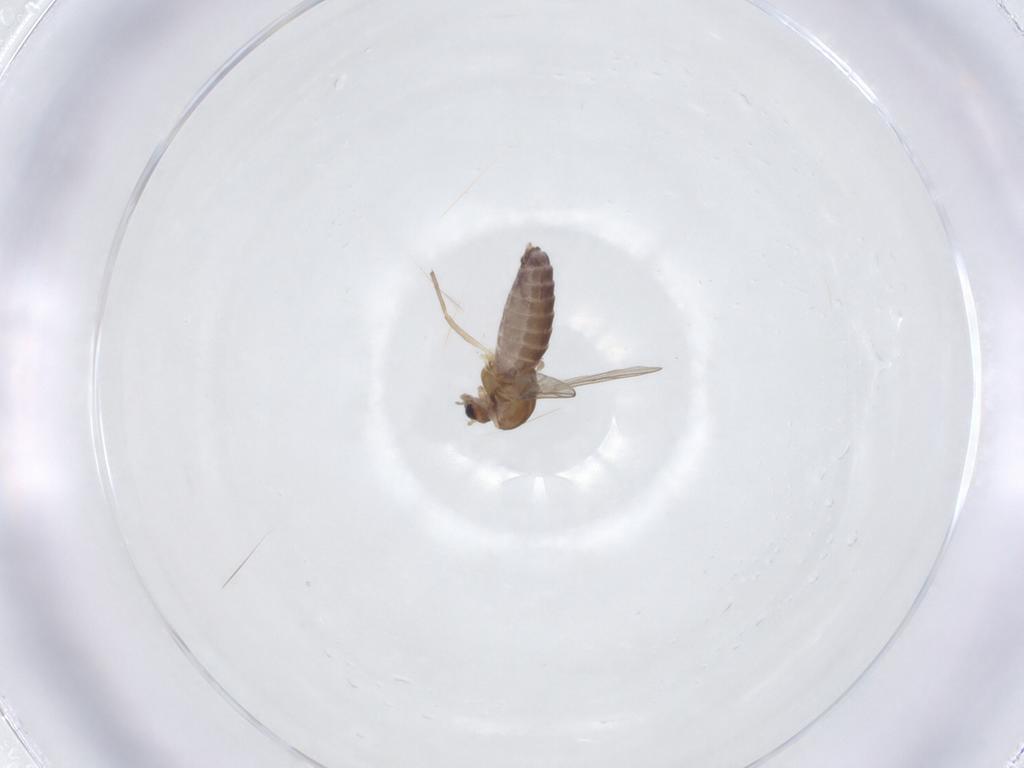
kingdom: Animalia
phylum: Arthropoda
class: Insecta
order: Diptera
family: Chironomidae
